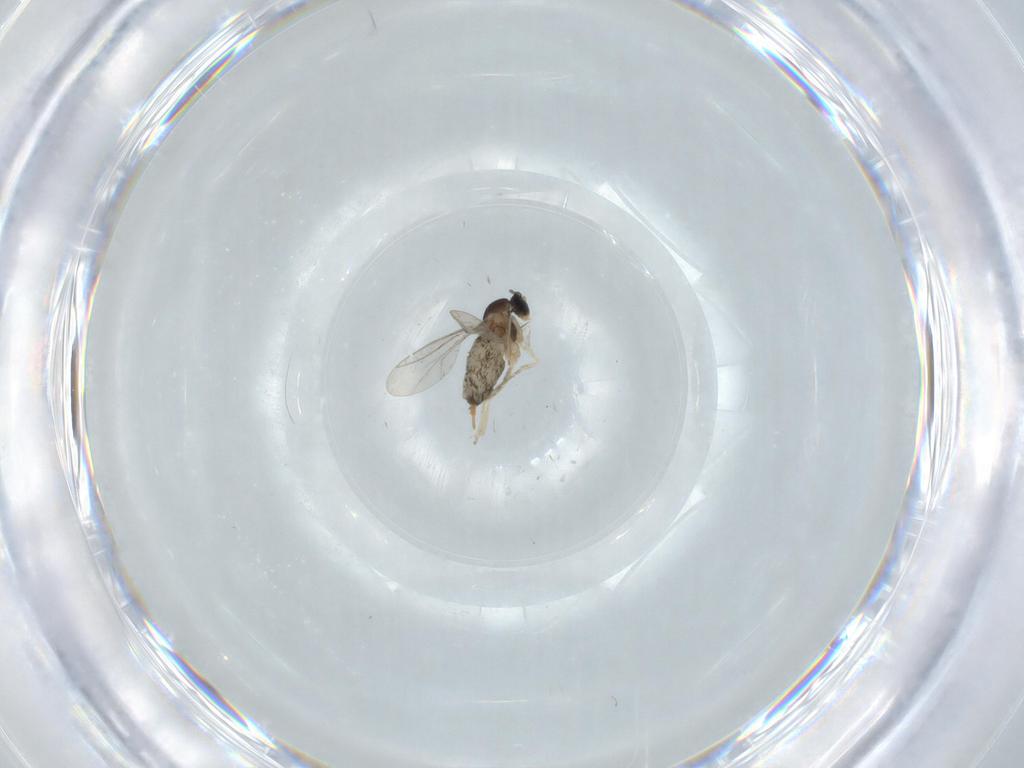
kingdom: Animalia
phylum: Arthropoda
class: Insecta
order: Diptera
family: Cecidomyiidae
